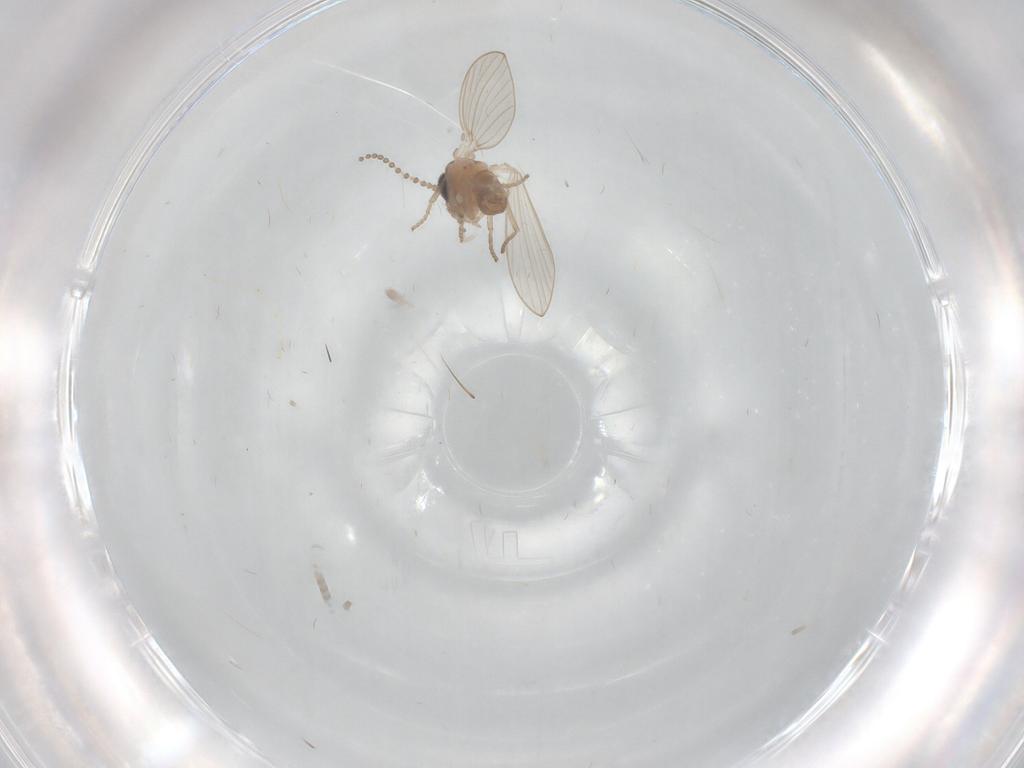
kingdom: Animalia
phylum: Arthropoda
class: Insecta
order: Diptera
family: Psychodidae
